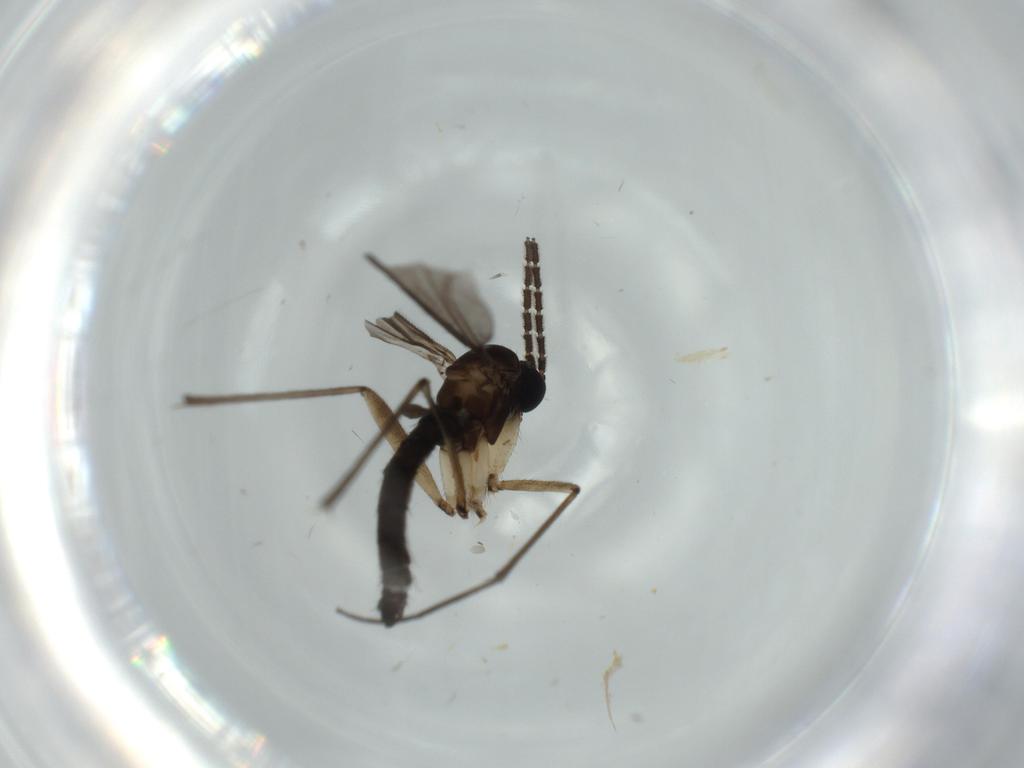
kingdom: Animalia
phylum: Arthropoda
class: Insecta
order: Diptera
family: Sciaridae
